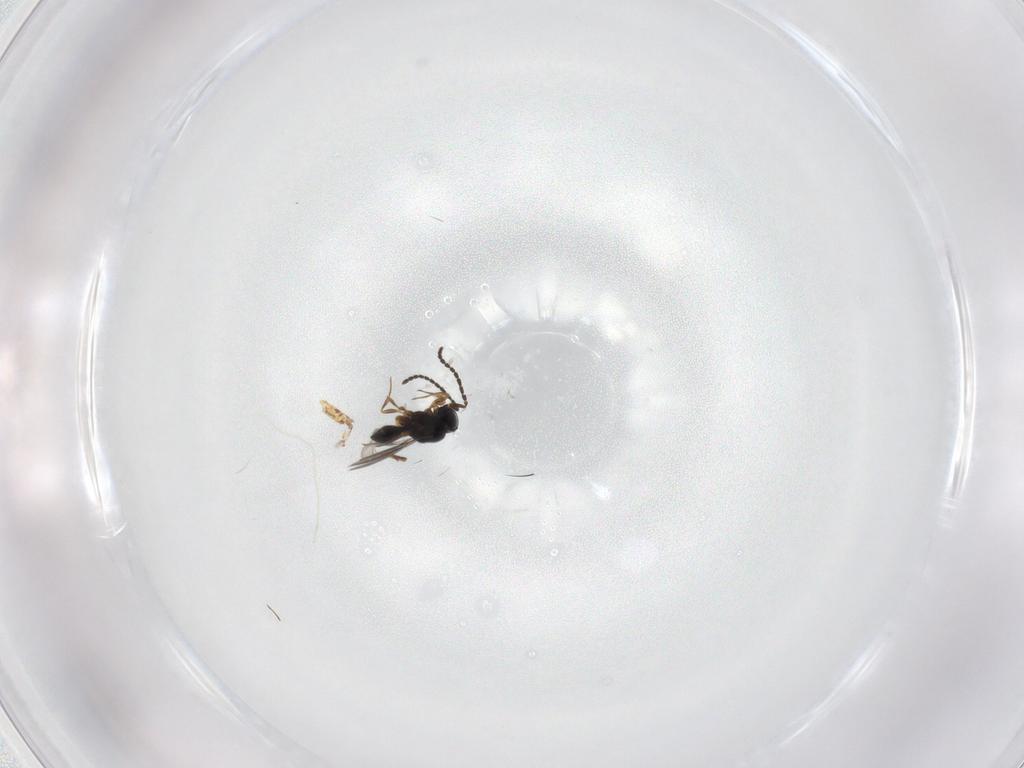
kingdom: Animalia
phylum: Arthropoda
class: Insecta
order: Hymenoptera
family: Scelionidae
